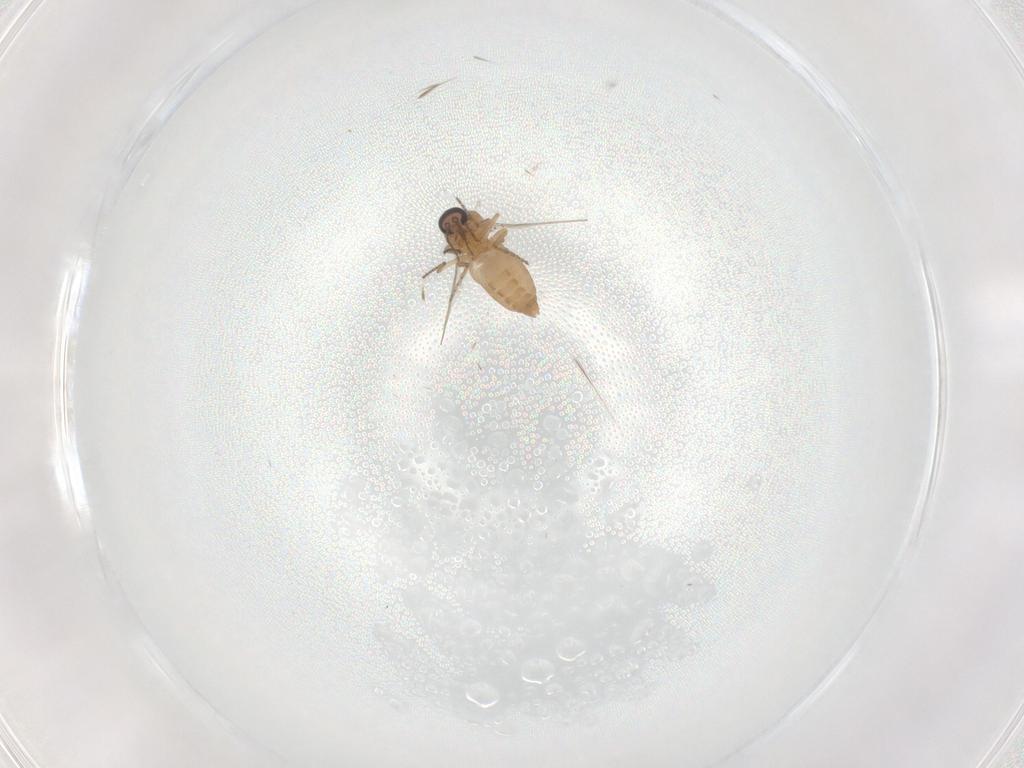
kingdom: Animalia
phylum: Arthropoda
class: Insecta
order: Diptera
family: Ceratopogonidae
